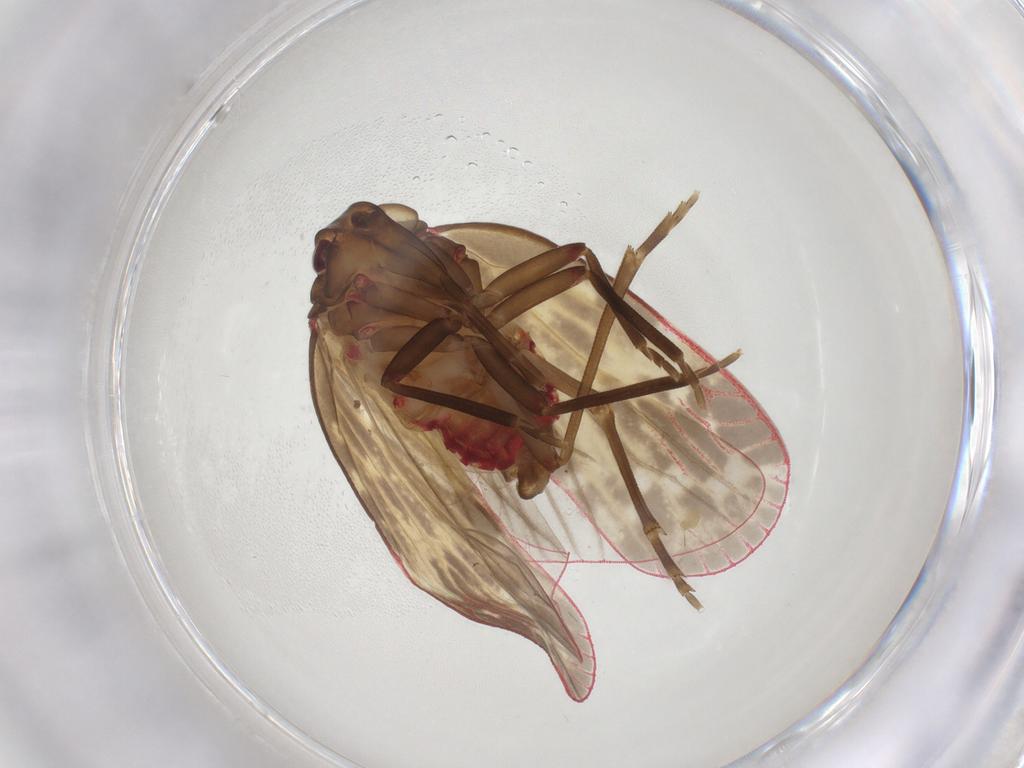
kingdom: Animalia
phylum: Arthropoda
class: Insecta
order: Hemiptera
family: Achilidae
